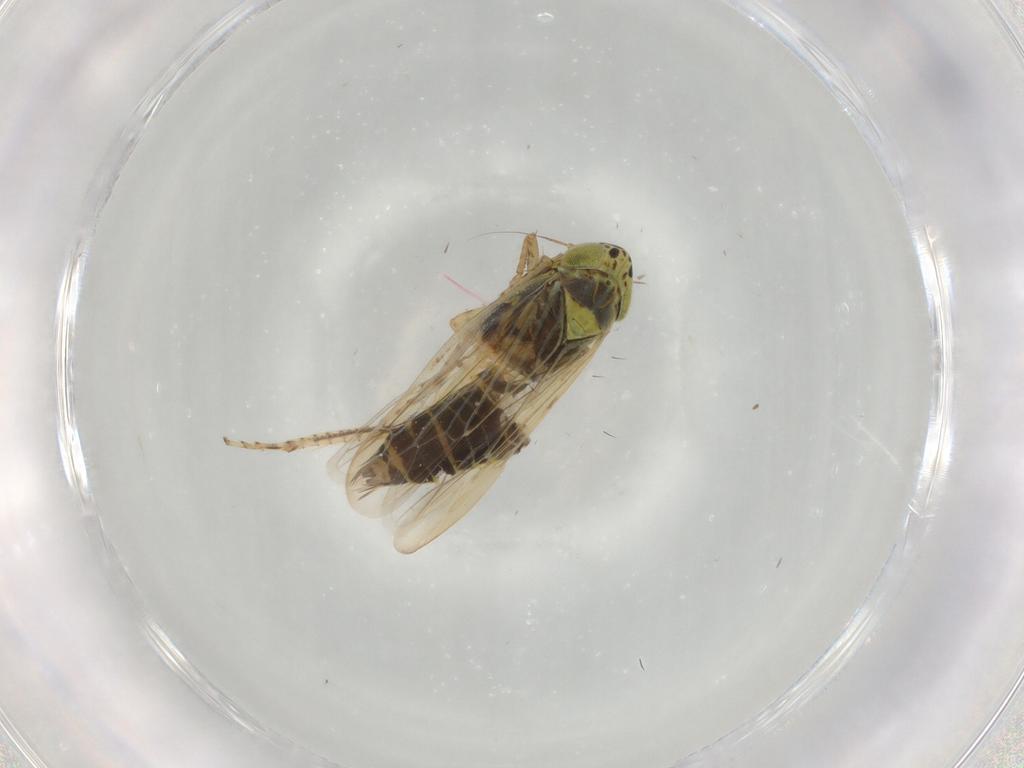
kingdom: Animalia
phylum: Arthropoda
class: Insecta
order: Hemiptera
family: Cicadellidae
